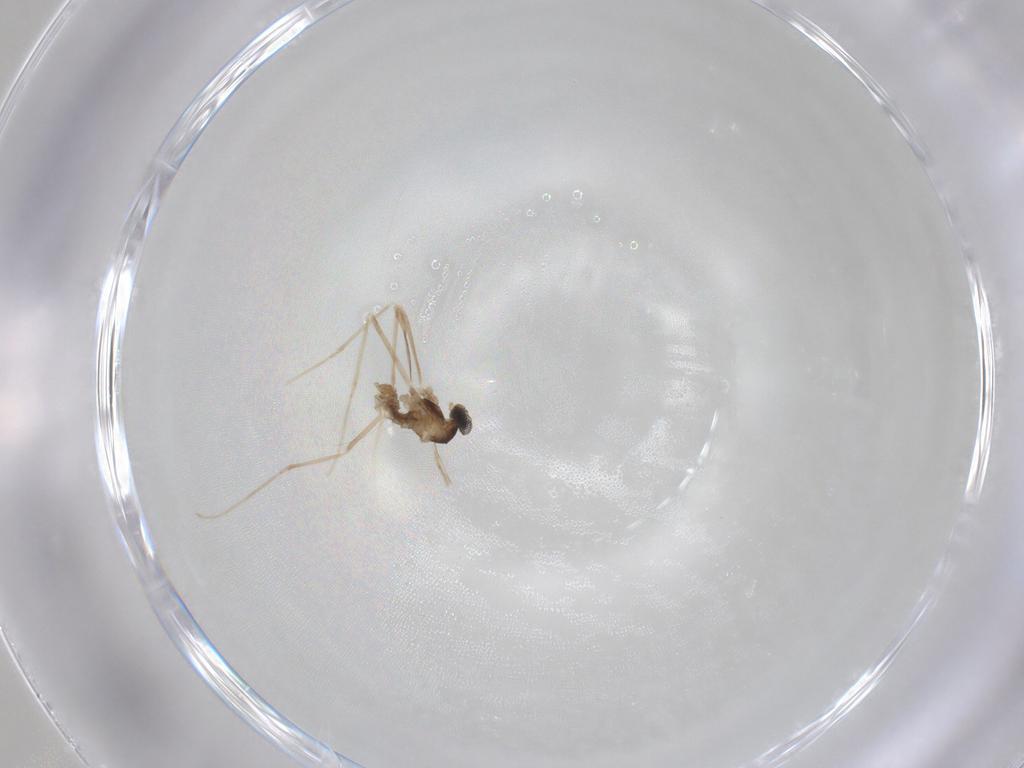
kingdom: Animalia
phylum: Arthropoda
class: Insecta
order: Diptera
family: Cecidomyiidae
